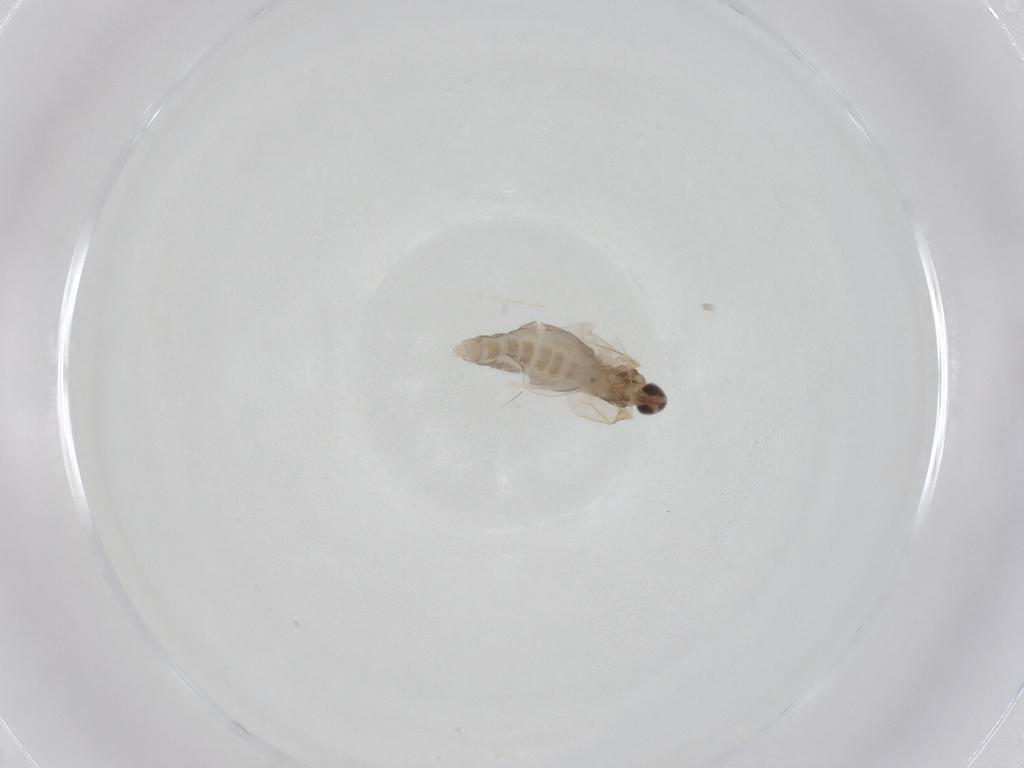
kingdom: Animalia
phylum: Arthropoda
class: Insecta
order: Diptera
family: Cecidomyiidae
